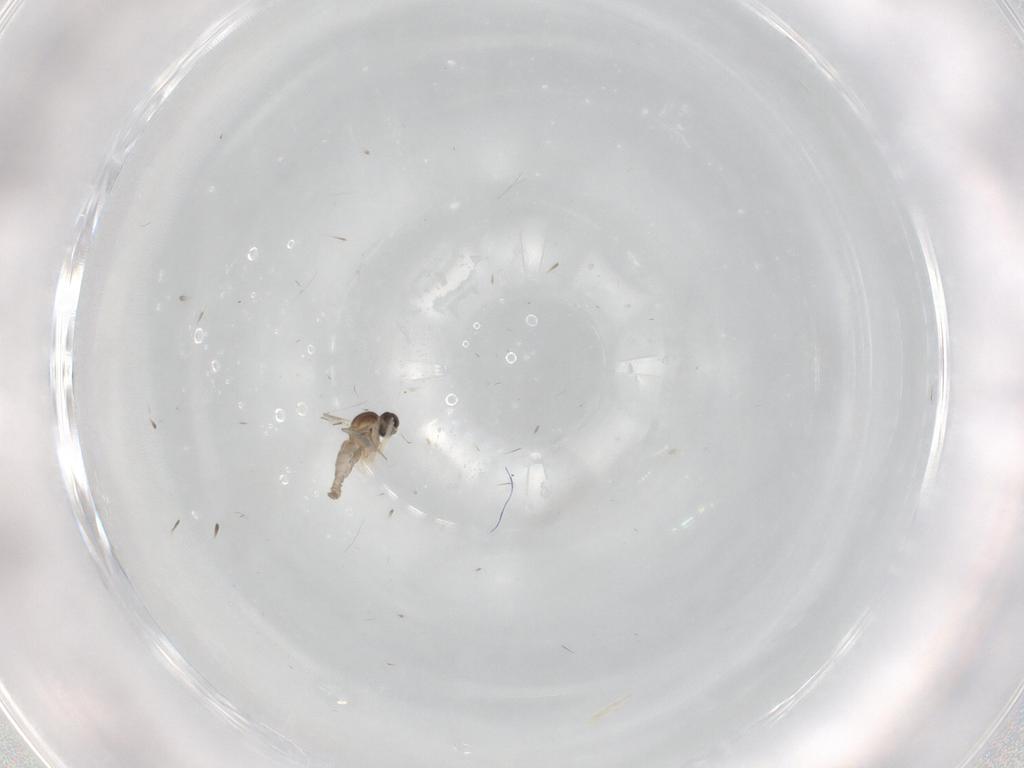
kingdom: Animalia
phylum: Arthropoda
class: Insecta
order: Diptera
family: Cecidomyiidae
